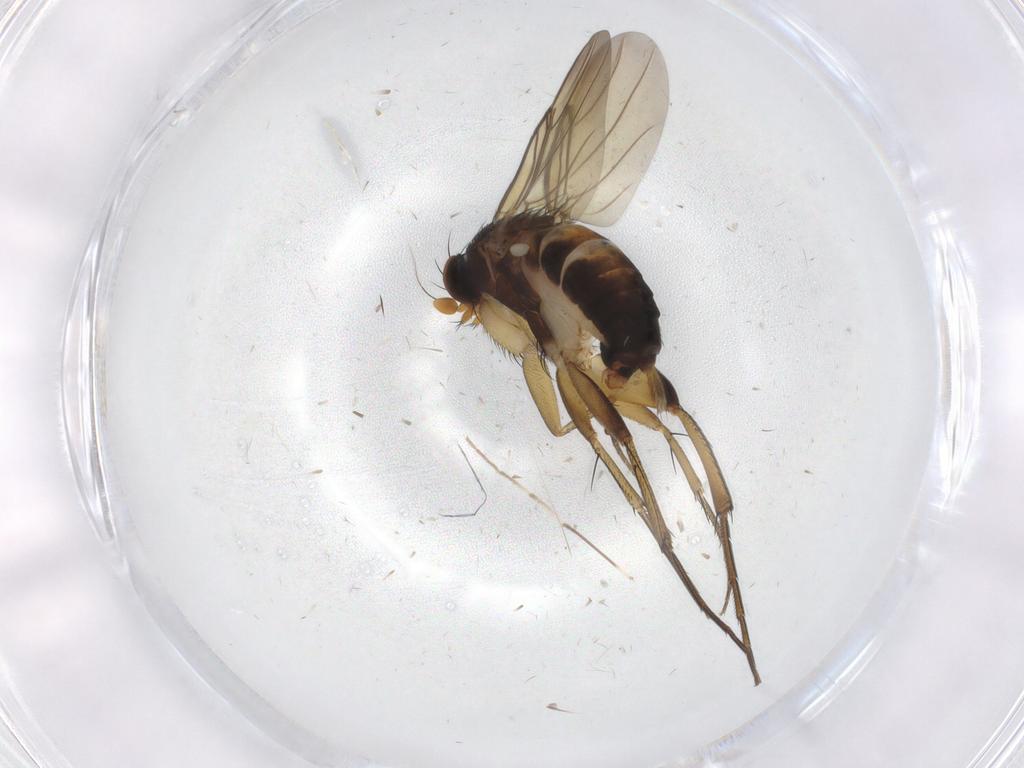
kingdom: Animalia
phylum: Arthropoda
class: Insecta
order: Diptera
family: Phoridae
